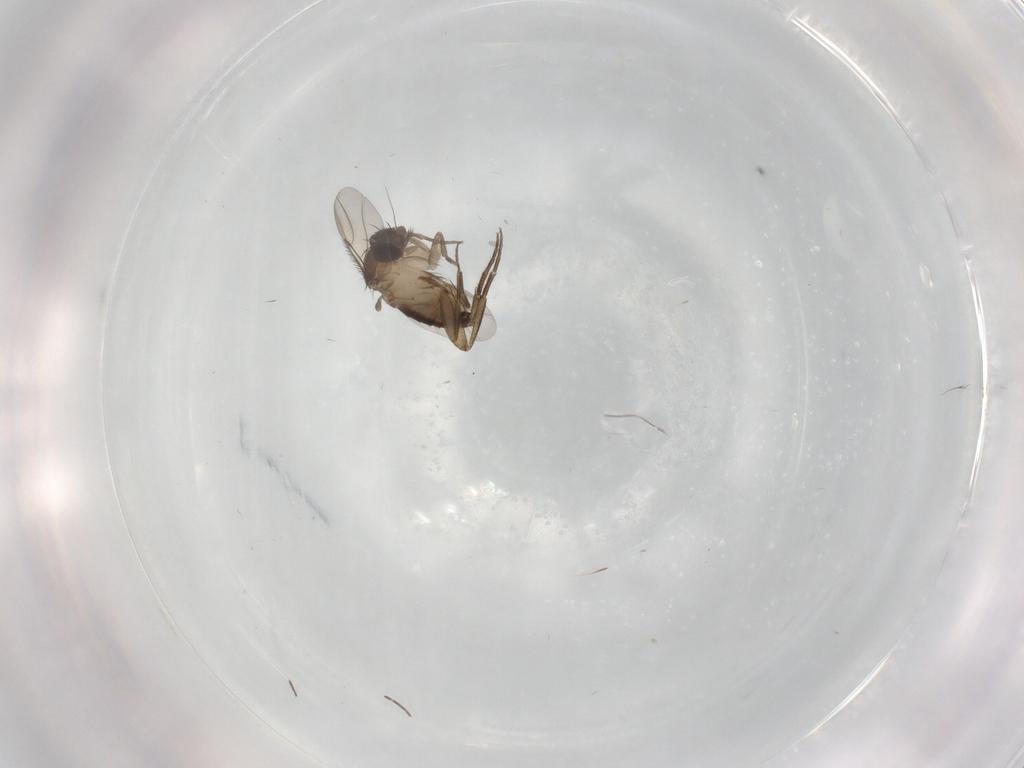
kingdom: Animalia
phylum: Arthropoda
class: Insecta
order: Diptera
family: Phoridae
